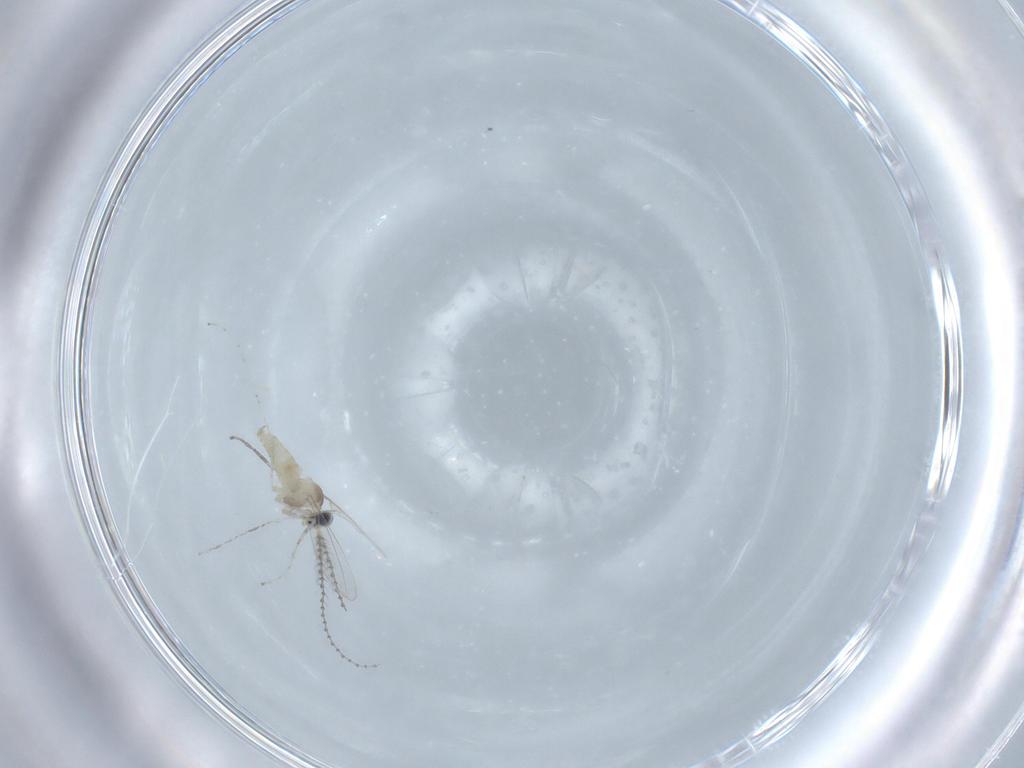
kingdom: Animalia
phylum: Arthropoda
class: Insecta
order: Diptera
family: Cecidomyiidae
